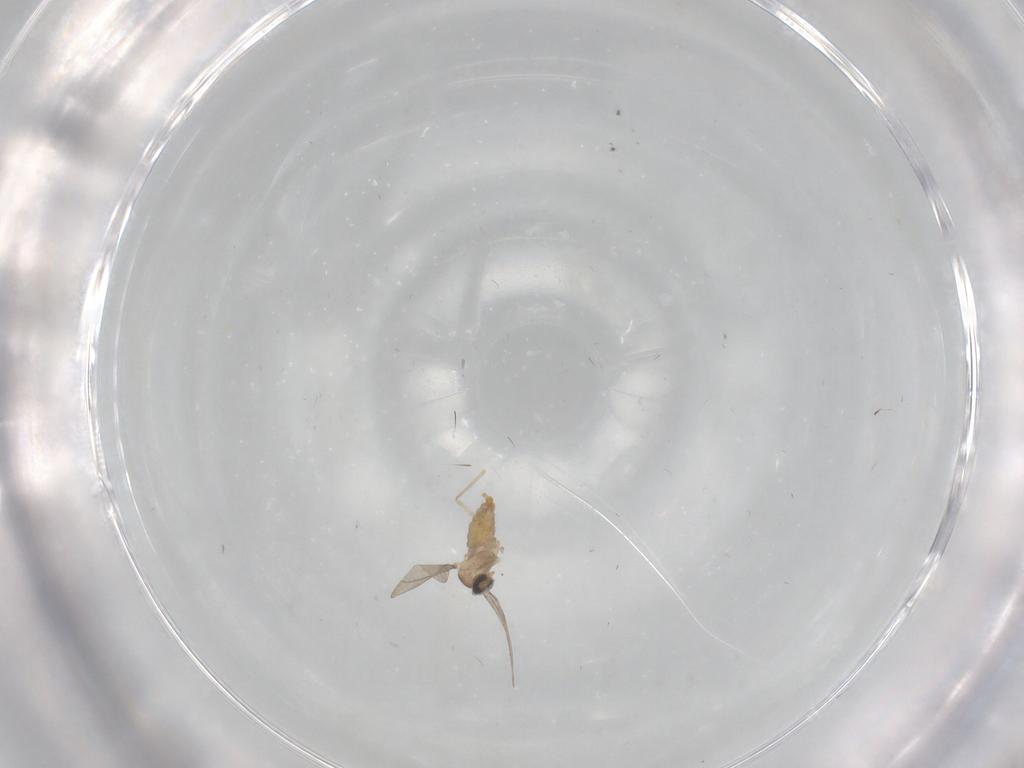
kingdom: Animalia
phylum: Arthropoda
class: Insecta
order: Diptera
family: Cecidomyiidae
